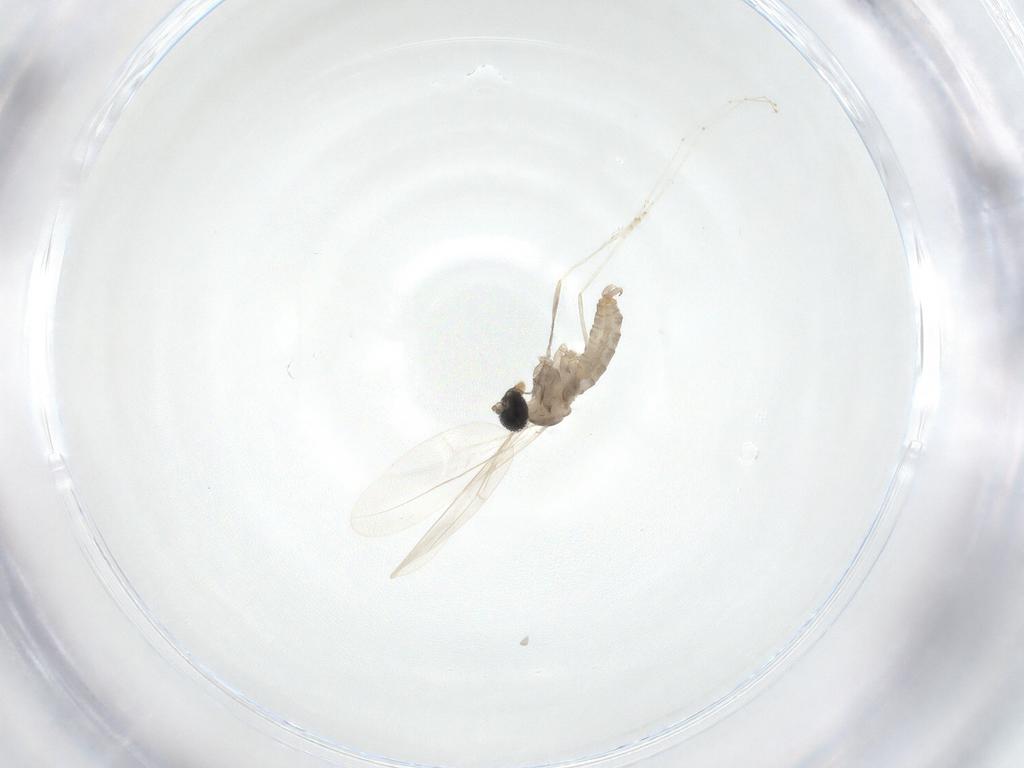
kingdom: Animalia
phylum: Arthropoda
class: Insecta
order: Diptera
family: Cecidomyiidae
